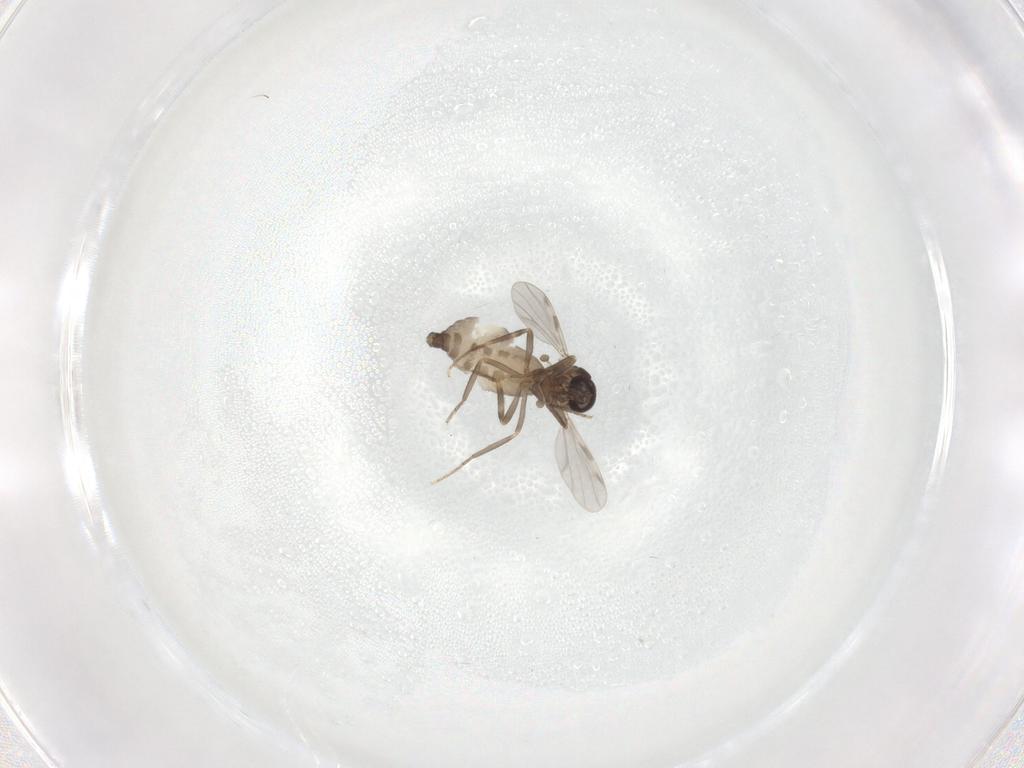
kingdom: Animalia
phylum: Arthropoda
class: Insecta
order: Diptera
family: Ceratopogonidae
